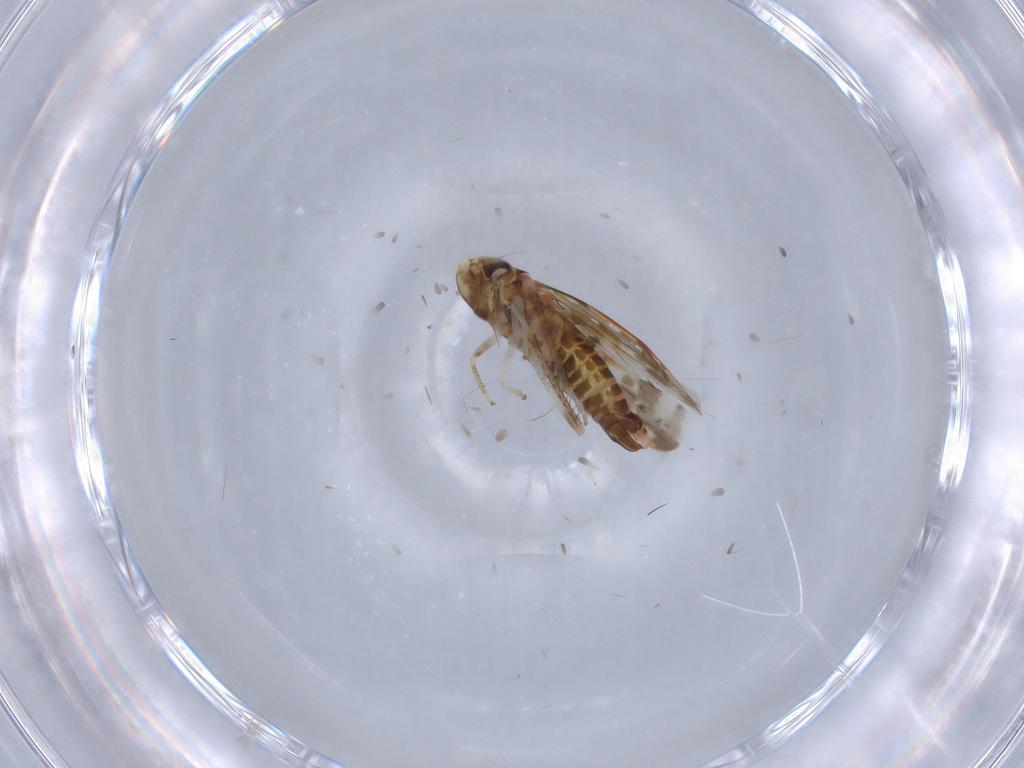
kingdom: Animalia
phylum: Arthropoda
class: Insecta
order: Hemiptera
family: Cicadellidae
